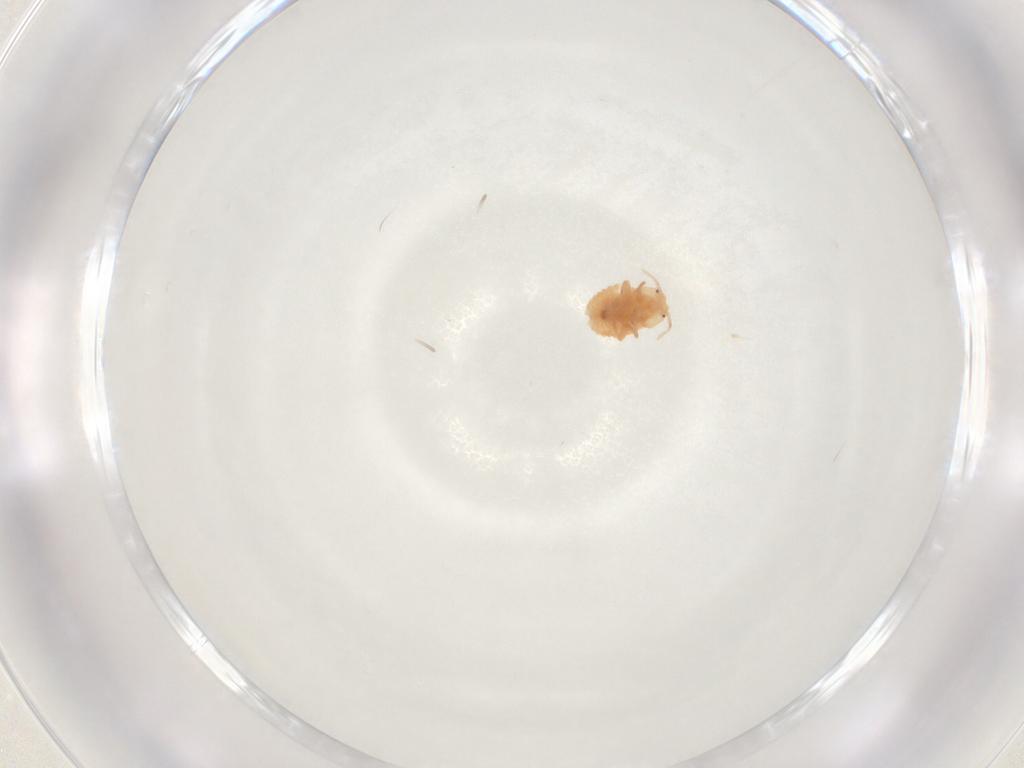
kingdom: Animalia
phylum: Arthropoda
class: Insecta
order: Hemiptera
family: Pseudococcidae
